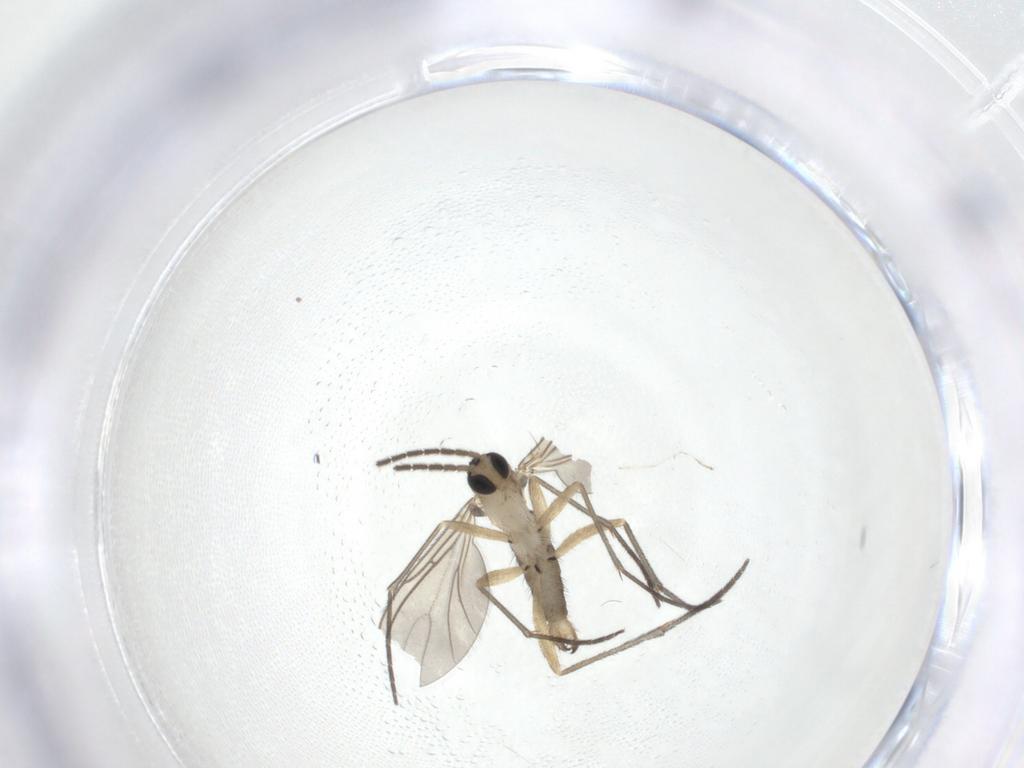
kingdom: Animalia
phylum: Arthropoda
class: Insecta
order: Diptera
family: Sciaridae
